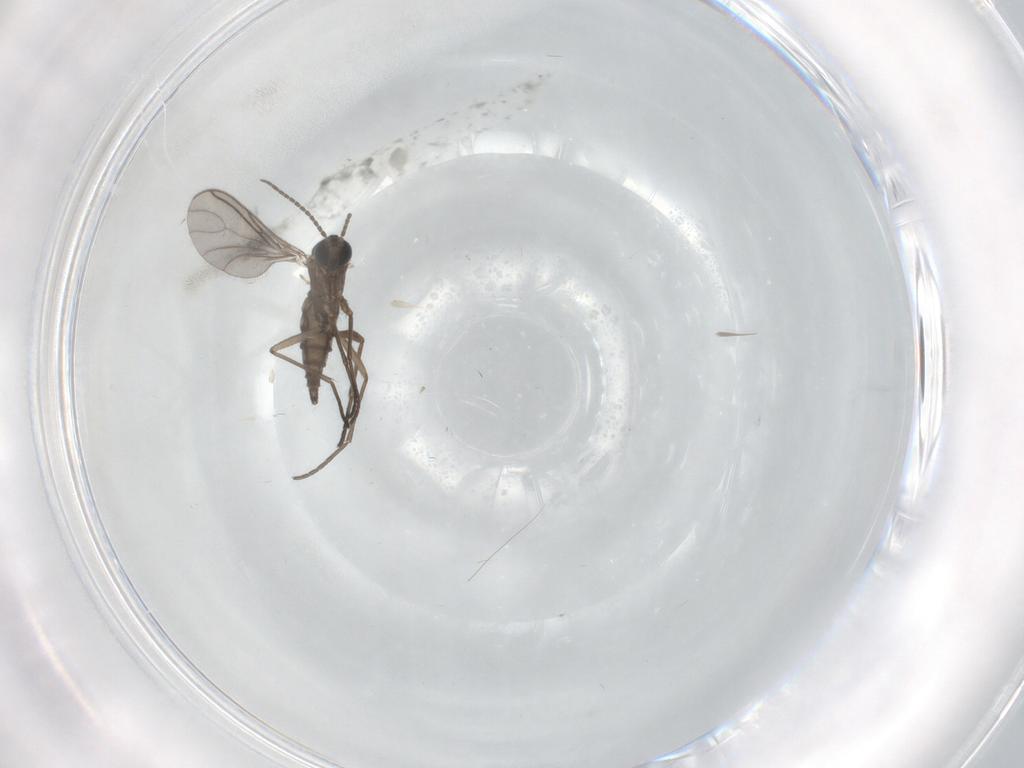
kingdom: Animalia
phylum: Arthropoda
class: Insecta
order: Diptera
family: Sciaridae
